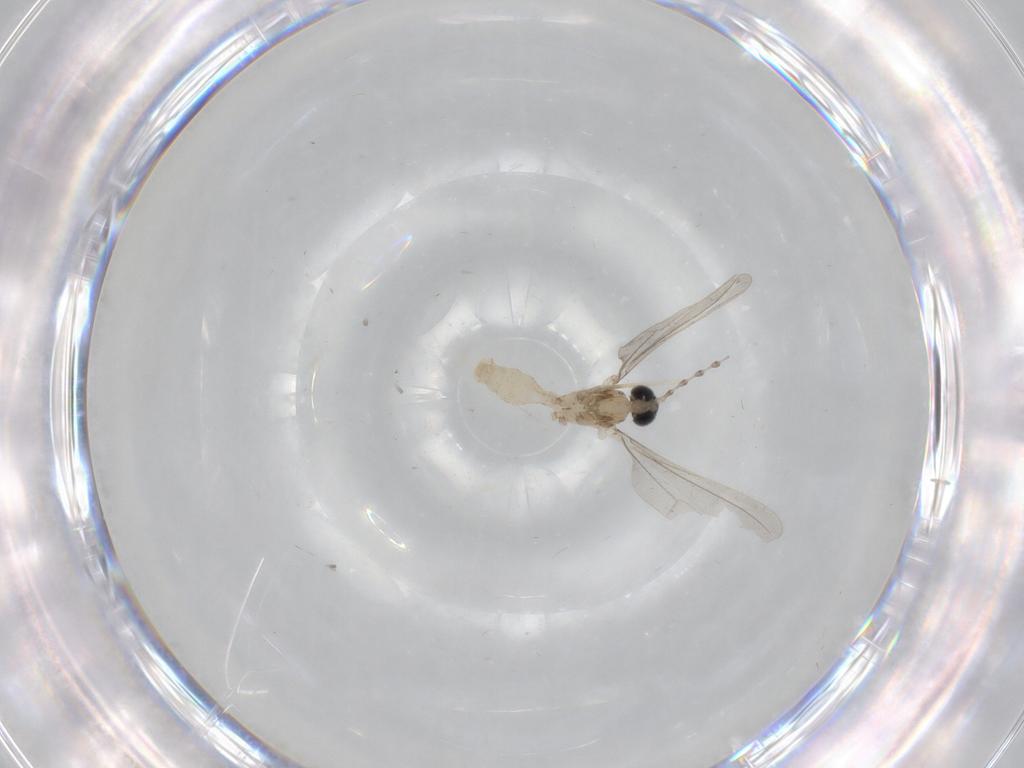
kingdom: Animalia
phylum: Arthropoda
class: Insecta
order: Diptera
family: Cecidomyiidae
